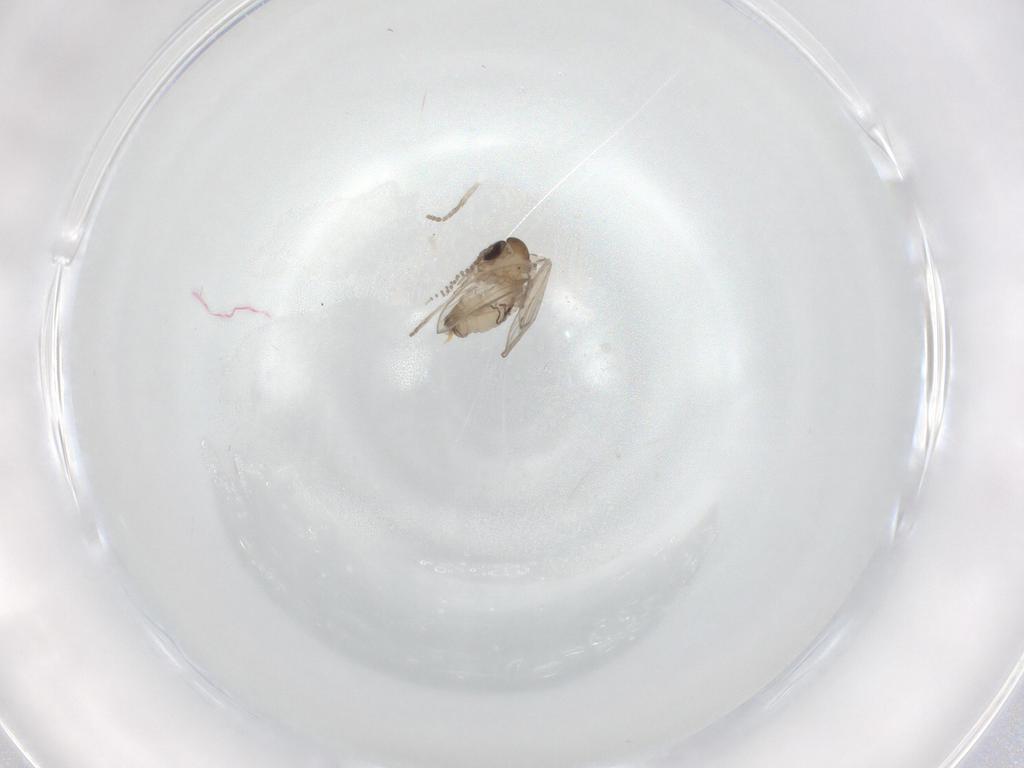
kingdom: Animalia
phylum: Arthropoda
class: Insecta
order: Diptera
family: Psychodidae
